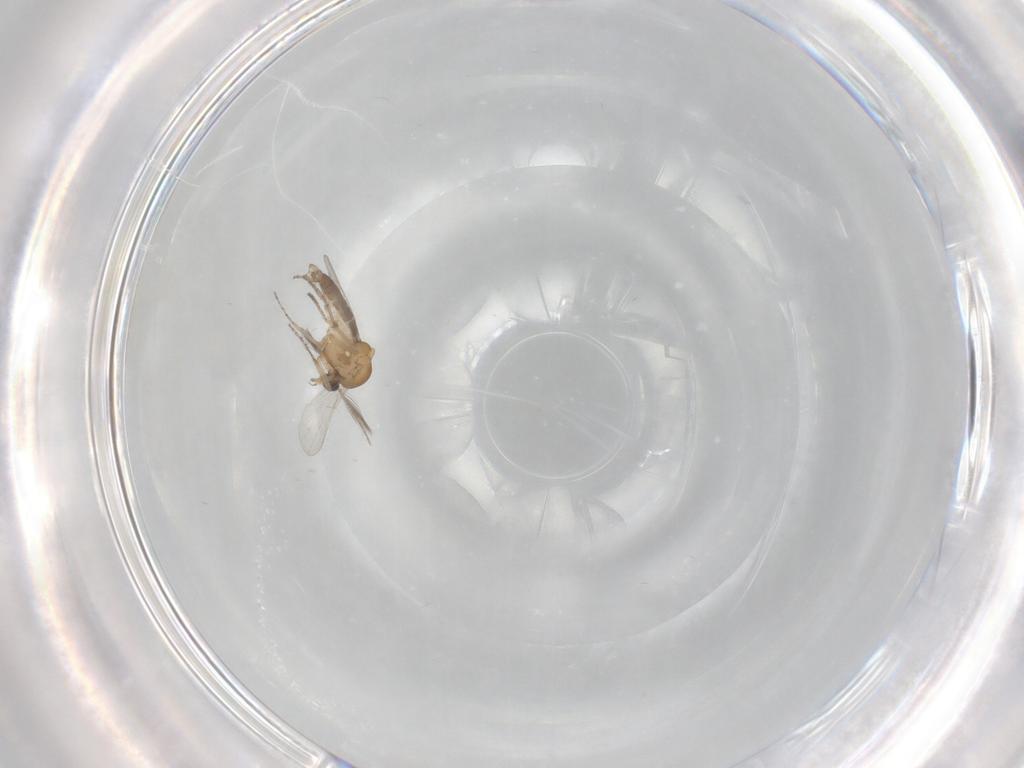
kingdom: Animalia
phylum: Arthropoda
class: Insecta
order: Diptera
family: Ceratopogonidae
